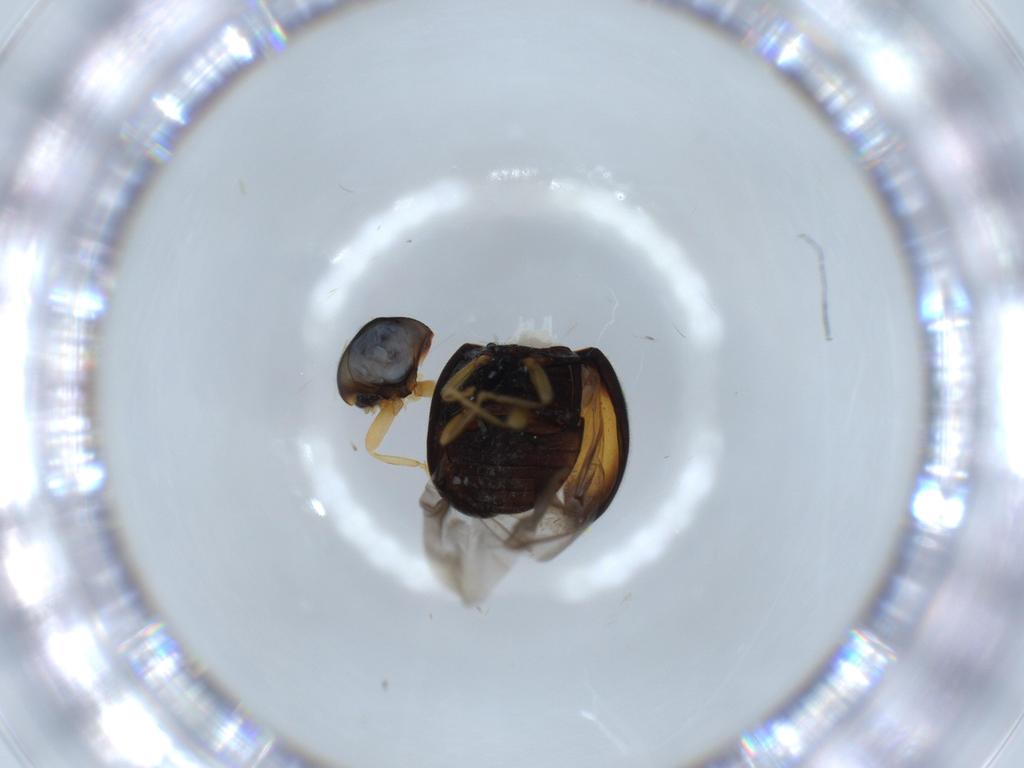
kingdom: Animalia
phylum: Arthropoda
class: Insecta
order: Coleoptera
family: Coccinellidae
